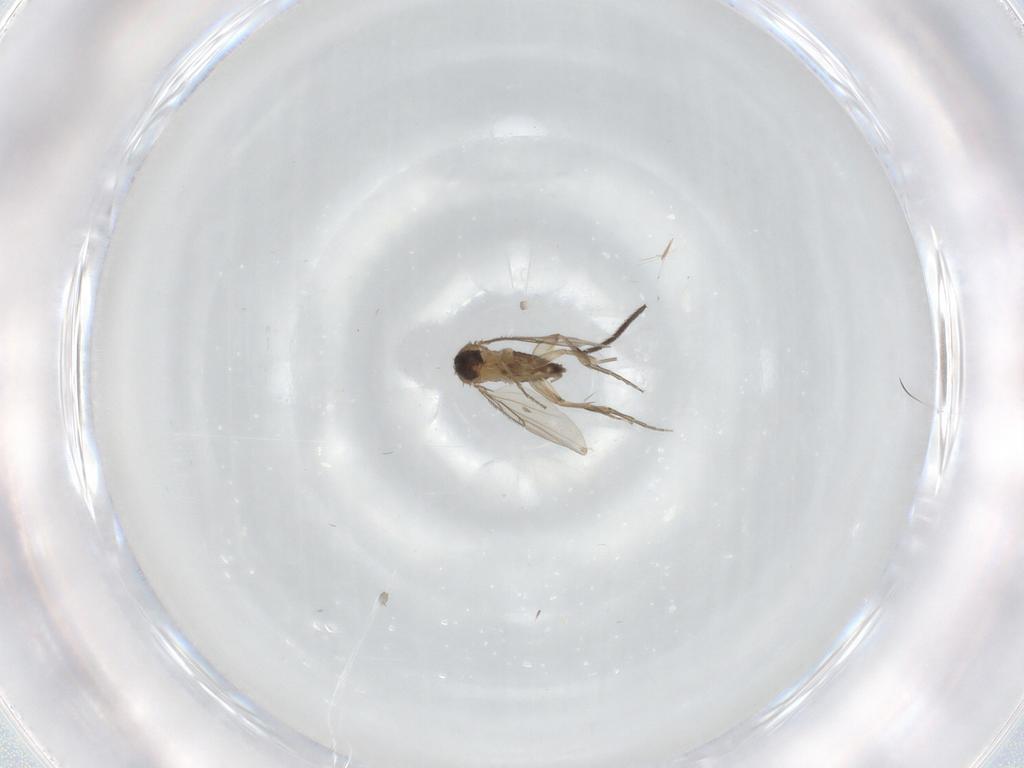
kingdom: Animalia
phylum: Arthropoda
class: Insecta
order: Diptera
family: Phoridae
